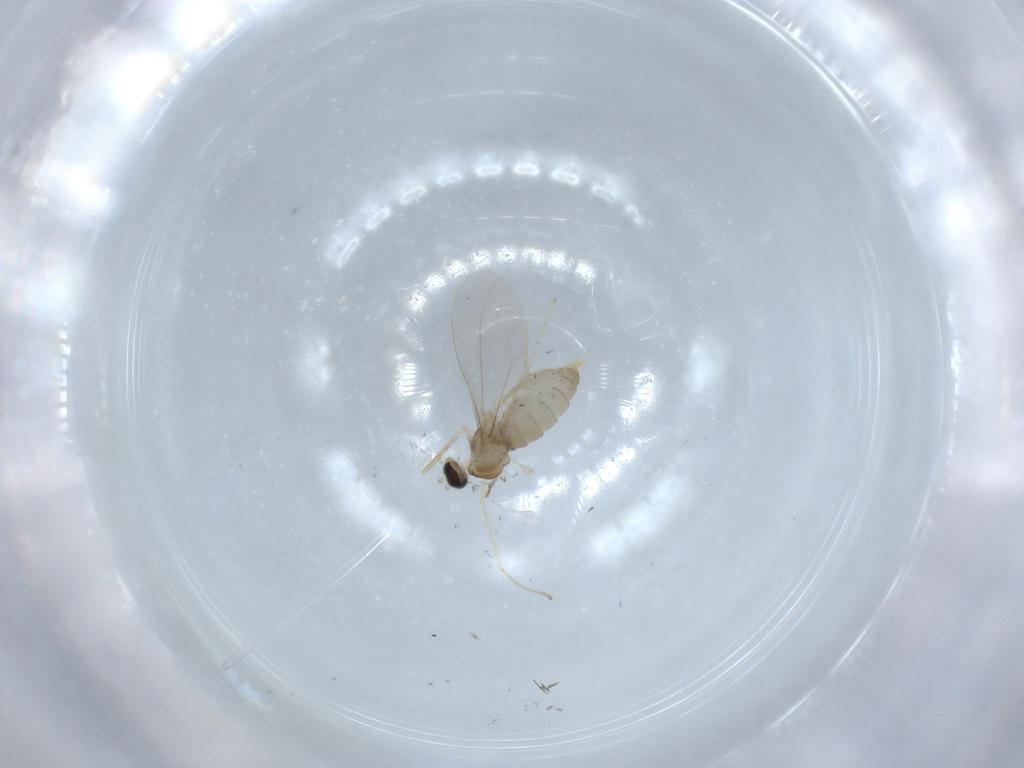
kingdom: Animalia
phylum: Arthropoda
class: Insecta
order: Diptera
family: Cecidomyiidae
